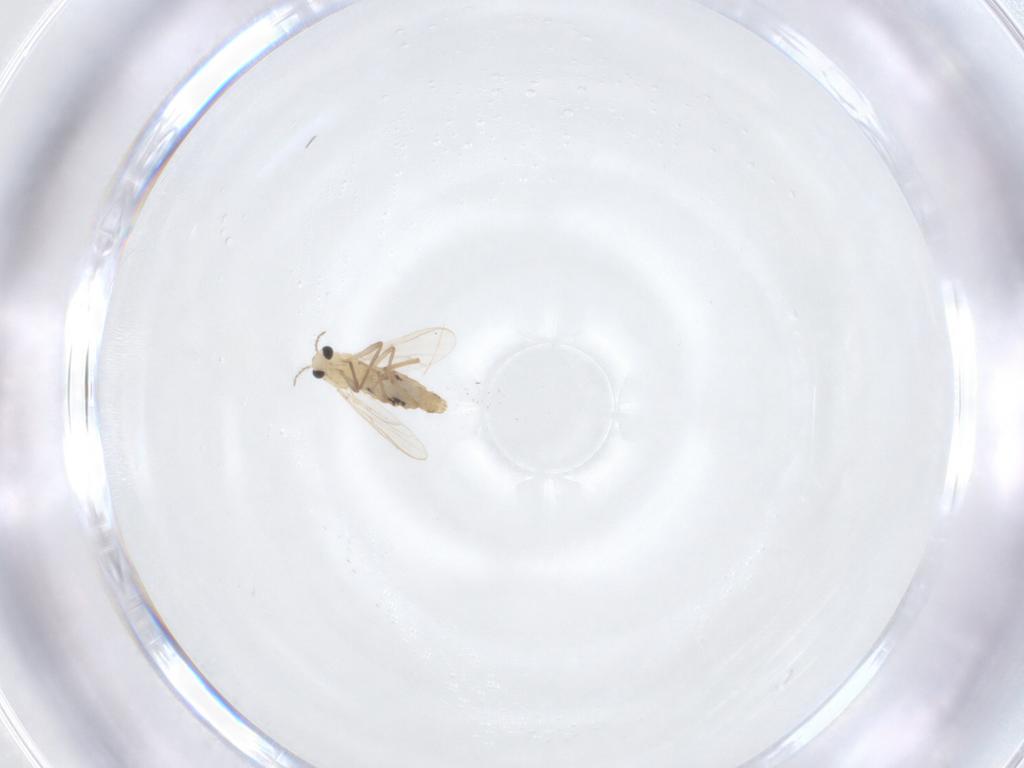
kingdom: Animalia
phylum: Arthropoda
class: Insecta
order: Diptera
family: Chironomidae
